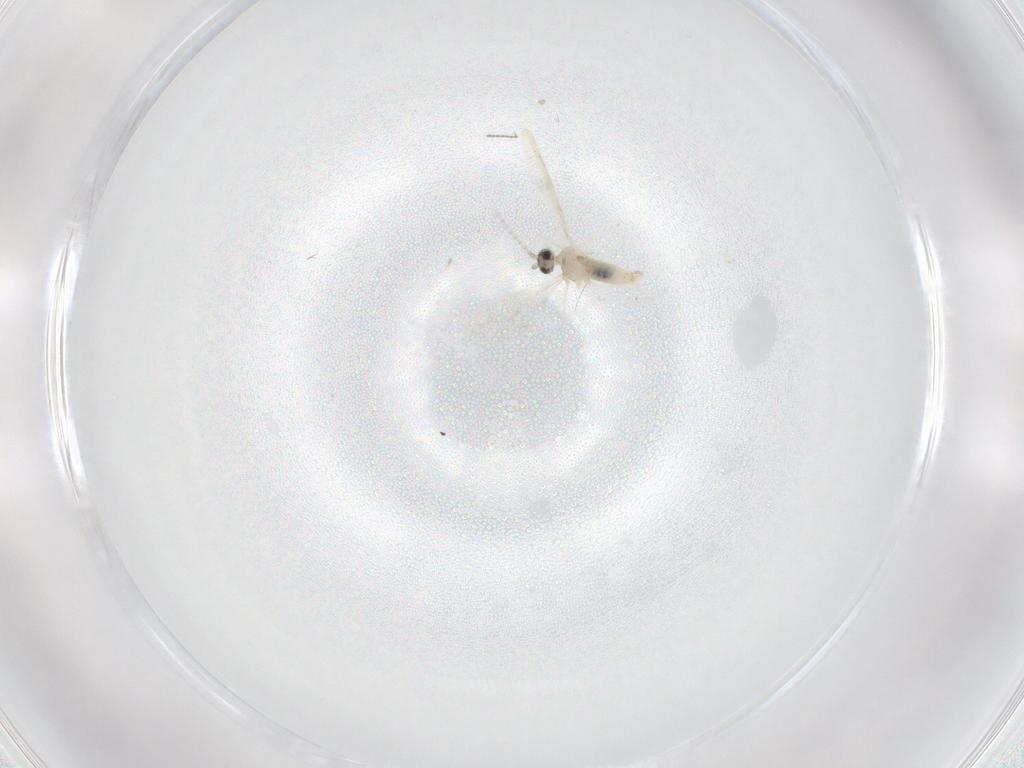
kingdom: Animalia
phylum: Arthropoda
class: Insecta
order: Diptera
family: Cecidomyiidae
